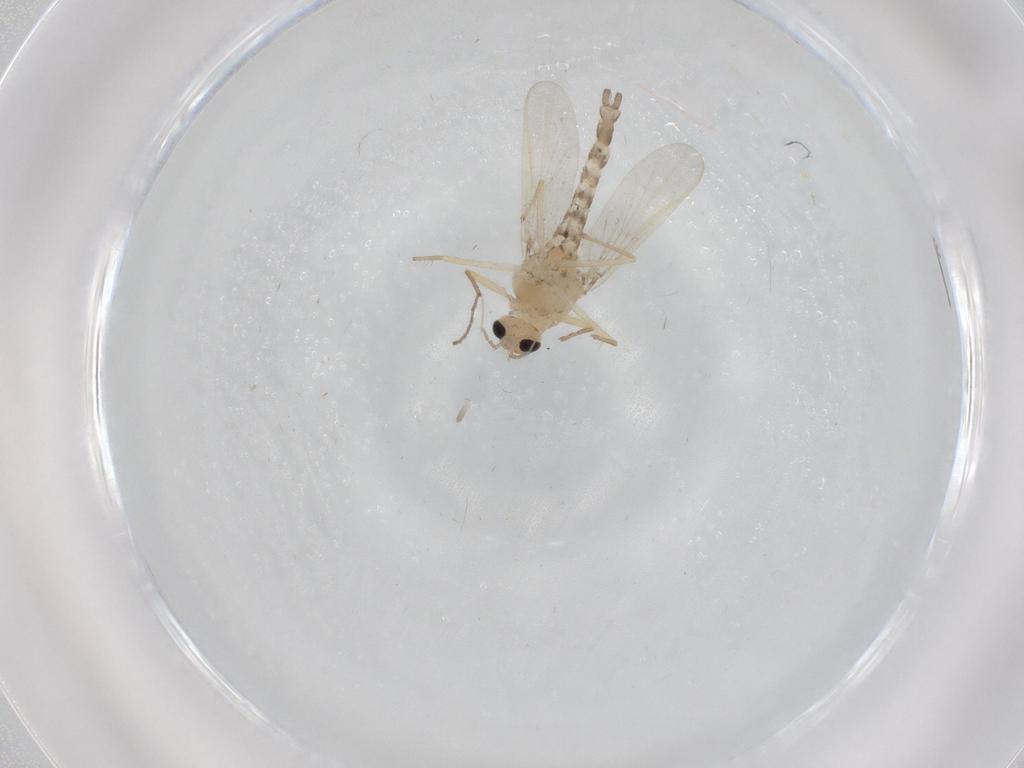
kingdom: Animalia
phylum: Arthropoda
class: Insecta
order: Diptera
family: Chironomidae
